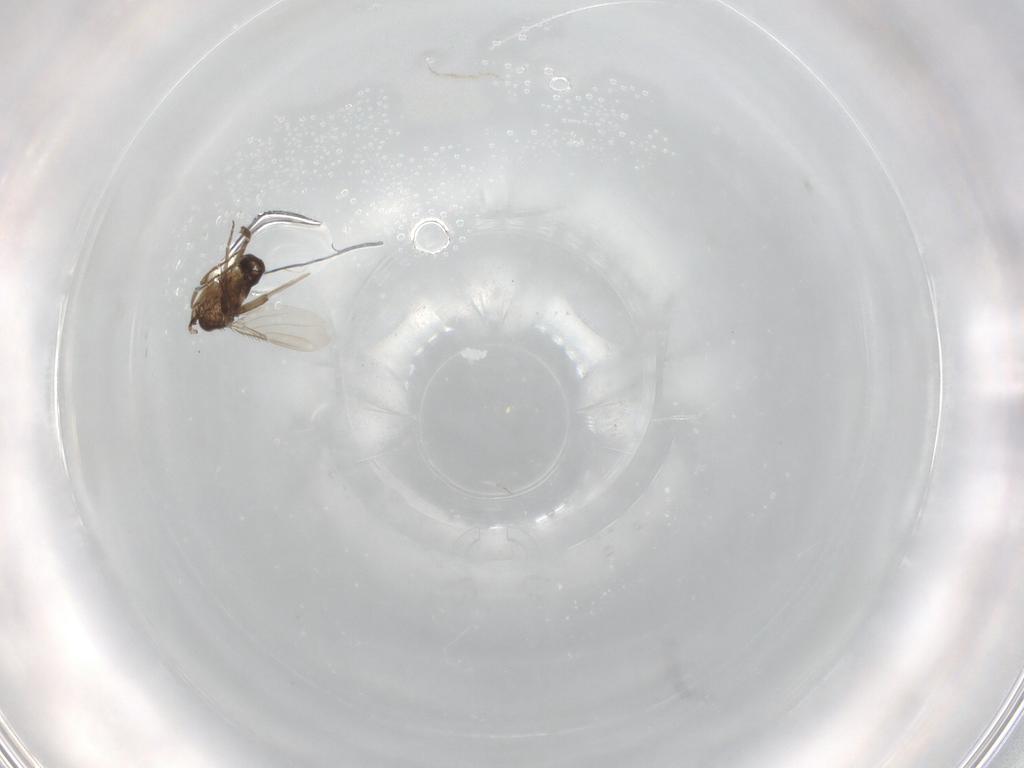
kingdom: Animalia
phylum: Arthropoda
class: Insecta
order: Diptera
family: Phoridae
